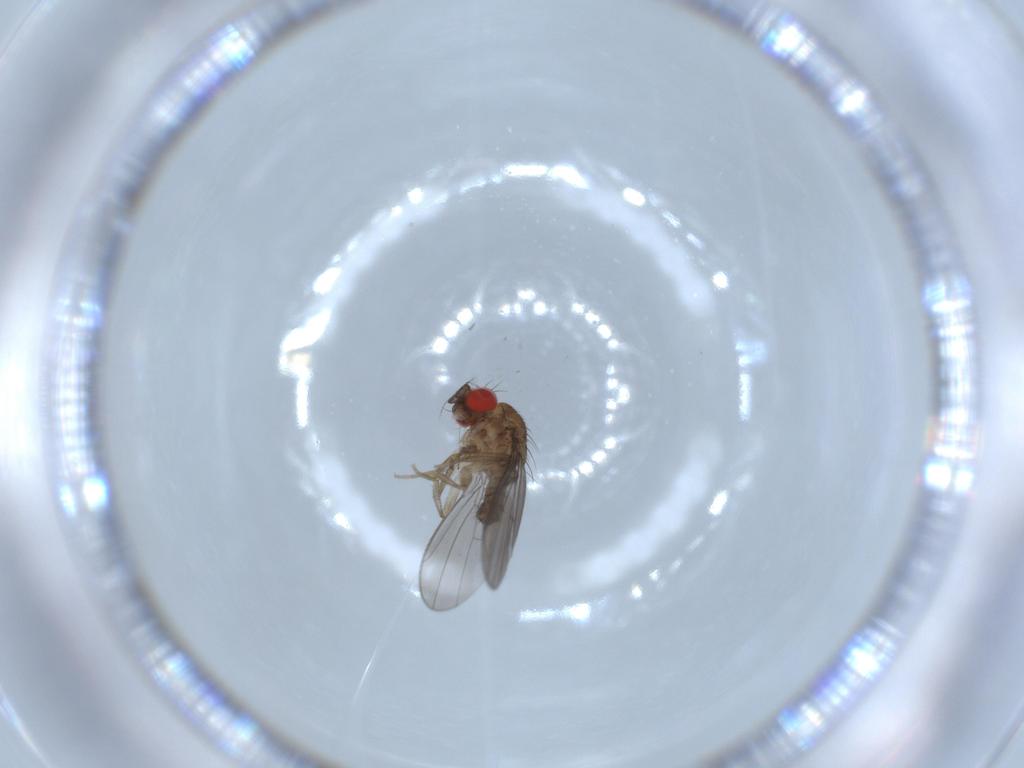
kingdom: Animalia
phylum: Arthropoda
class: Insecta
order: Diptera
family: Drosophilidae
